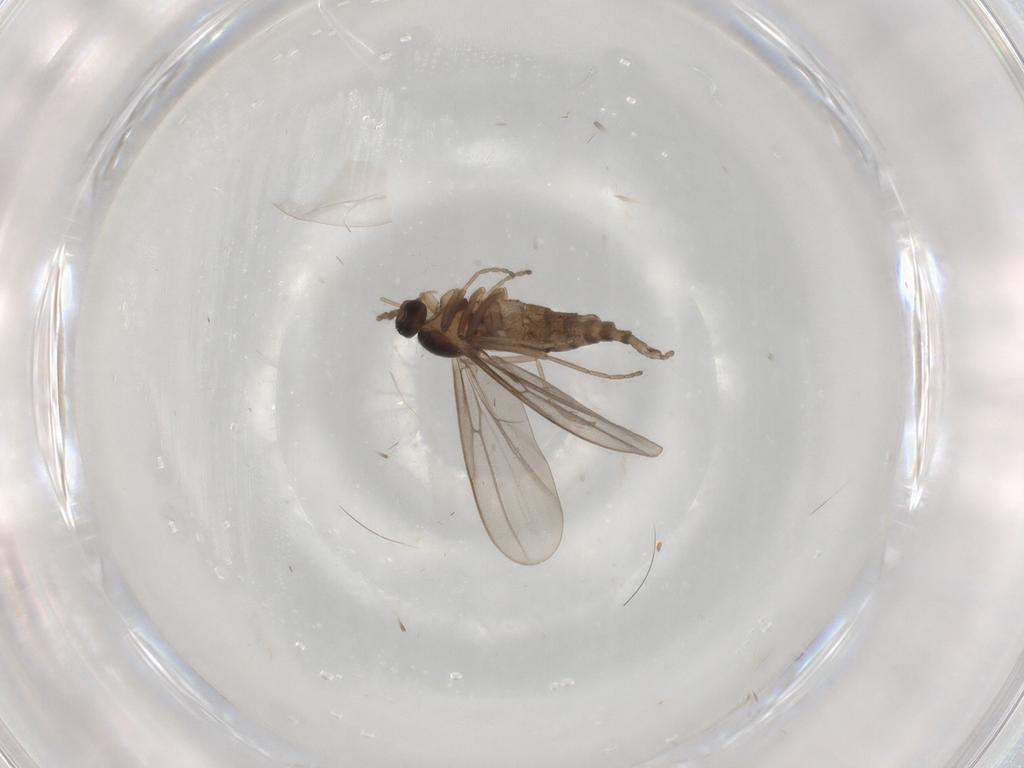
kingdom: Animalia
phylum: Arthropoda
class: Insecta
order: Diptera
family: Cecidomyiidae
